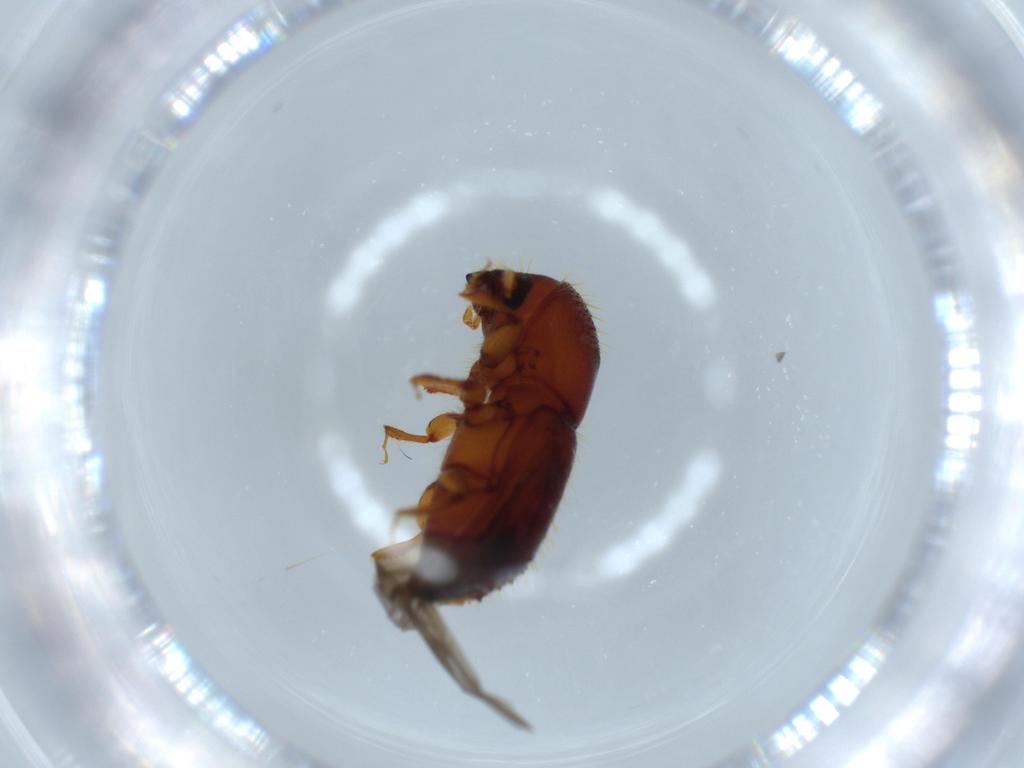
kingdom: Animalia
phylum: Arthropoda
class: Insecta
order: Coleoptera
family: Curculionidae
